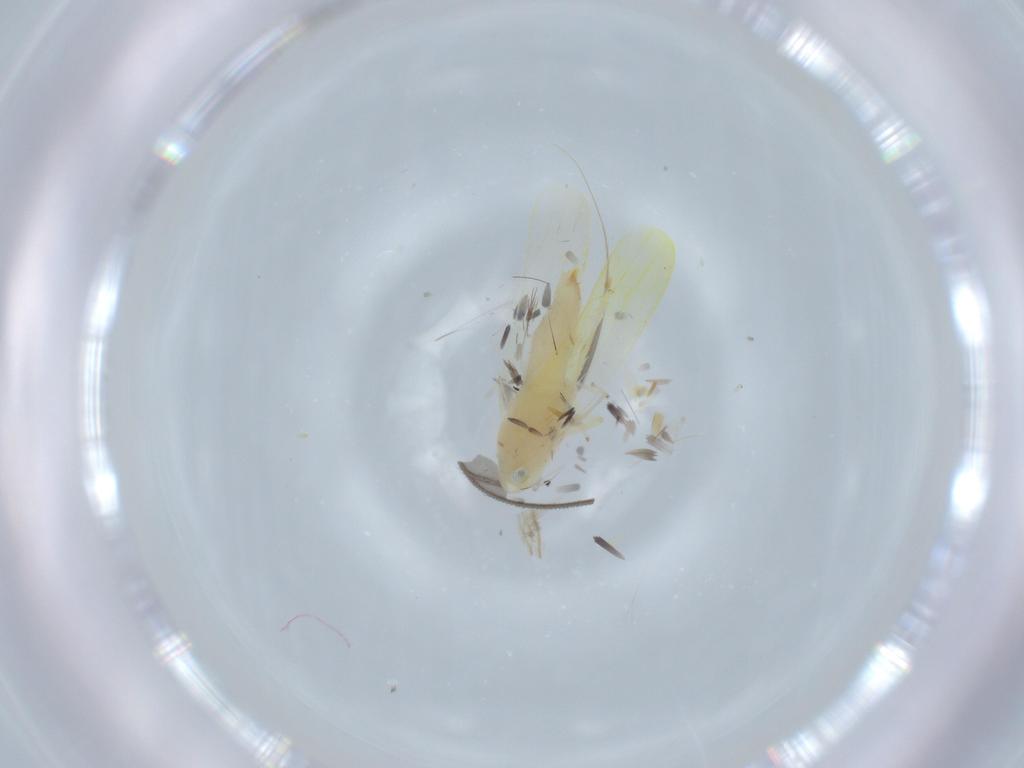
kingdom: Animalia
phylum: Arthropoda
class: Insecta
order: Hemiptera
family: Cicadellidae
